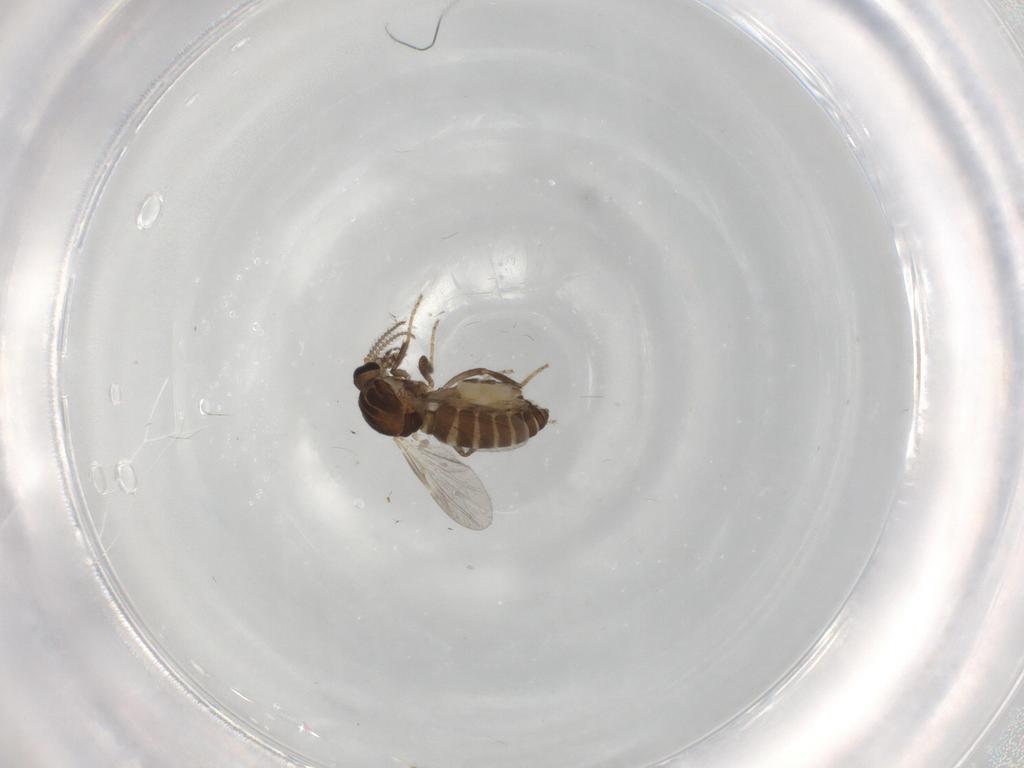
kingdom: Animalia
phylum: Arthropoda
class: Insecta
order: Diptera
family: Ceratopogonidae
